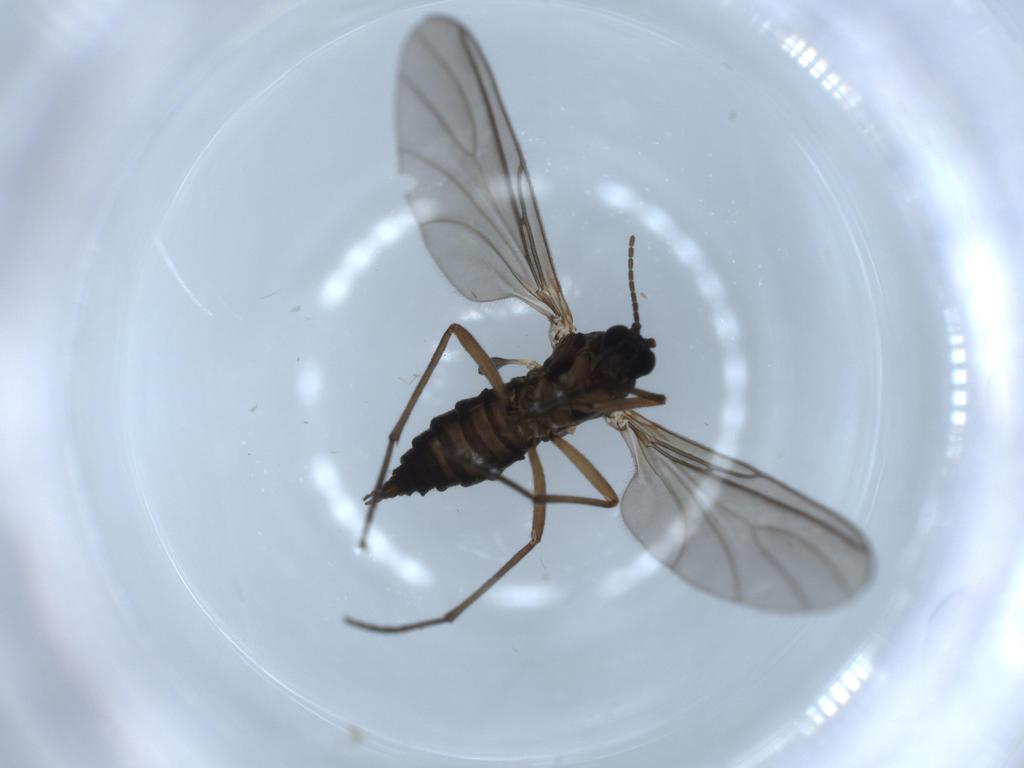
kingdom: Animalia
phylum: Arthropoda
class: Insecta
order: Diptera
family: Sciaridae
